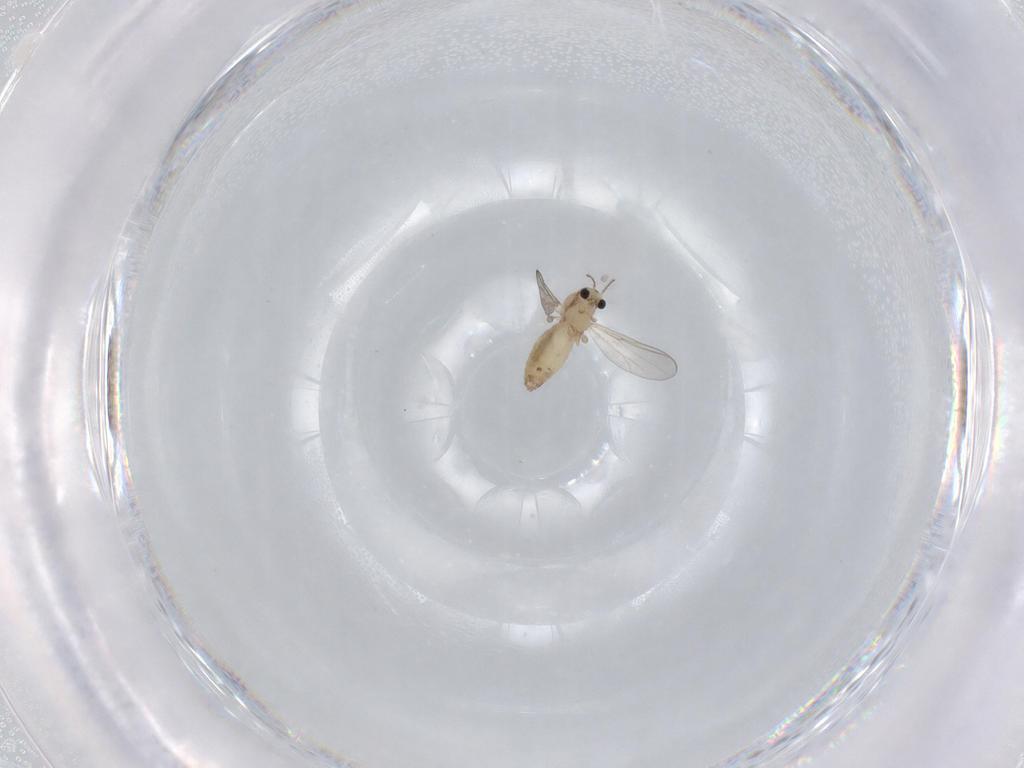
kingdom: Animalia
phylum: Arthropoda
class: Insecta
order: Diptera
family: Chironomidae
